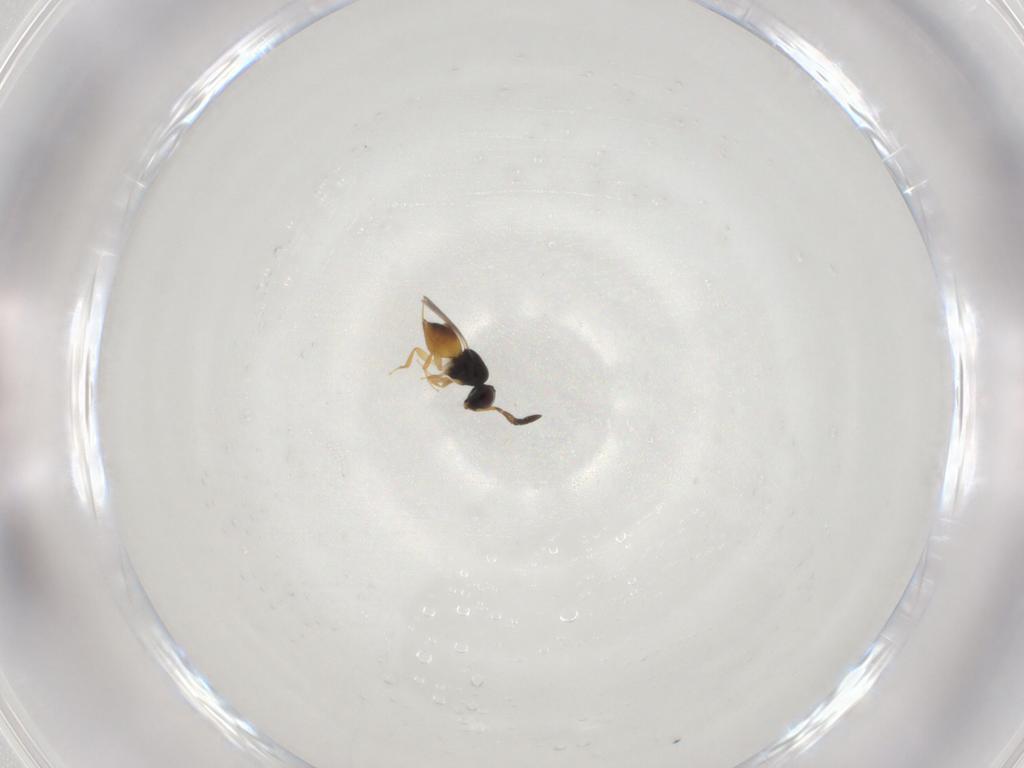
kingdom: Animalia
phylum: Arthropoda
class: Insecta
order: Hymenoptera
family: Ceraphronidae
